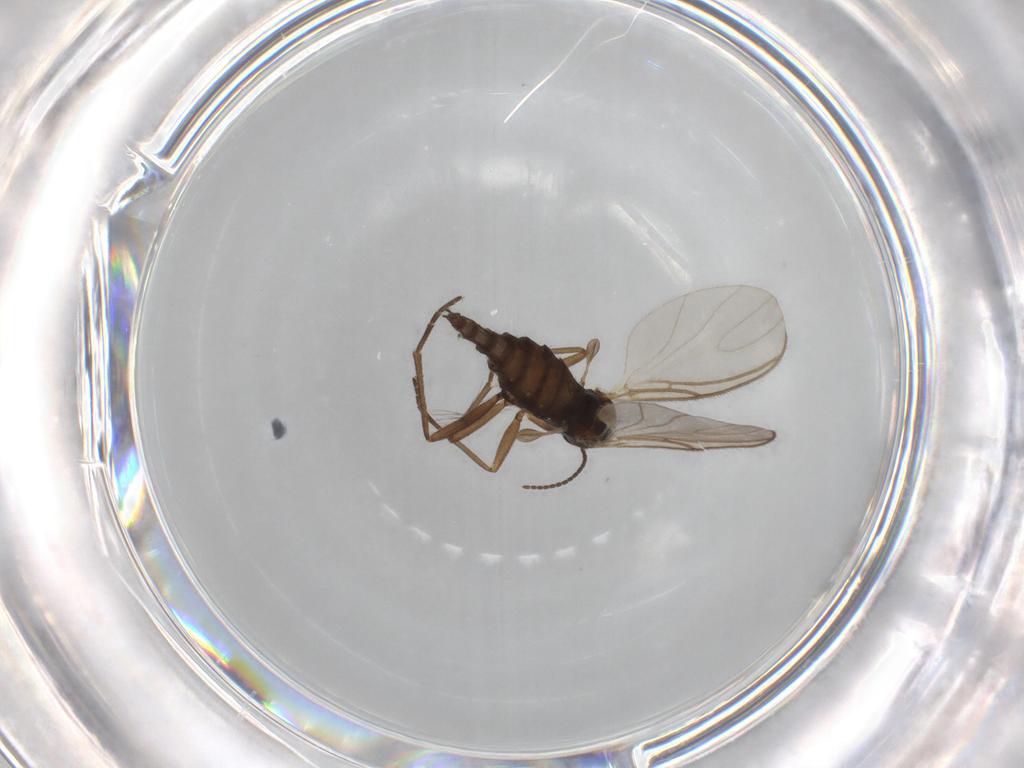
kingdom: Animalia
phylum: Arthropoda
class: Insecta
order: Diptera
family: Sciaridae
